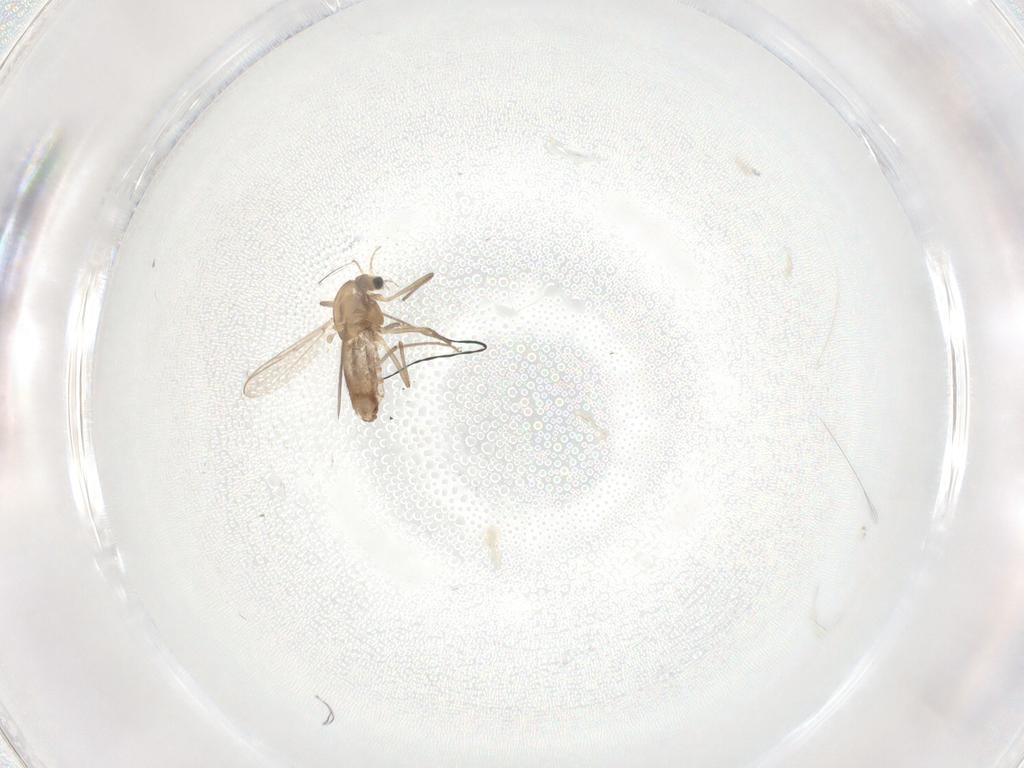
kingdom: Animalia
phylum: Arthropoda
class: Insecta
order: Diptera
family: Chironomidae
